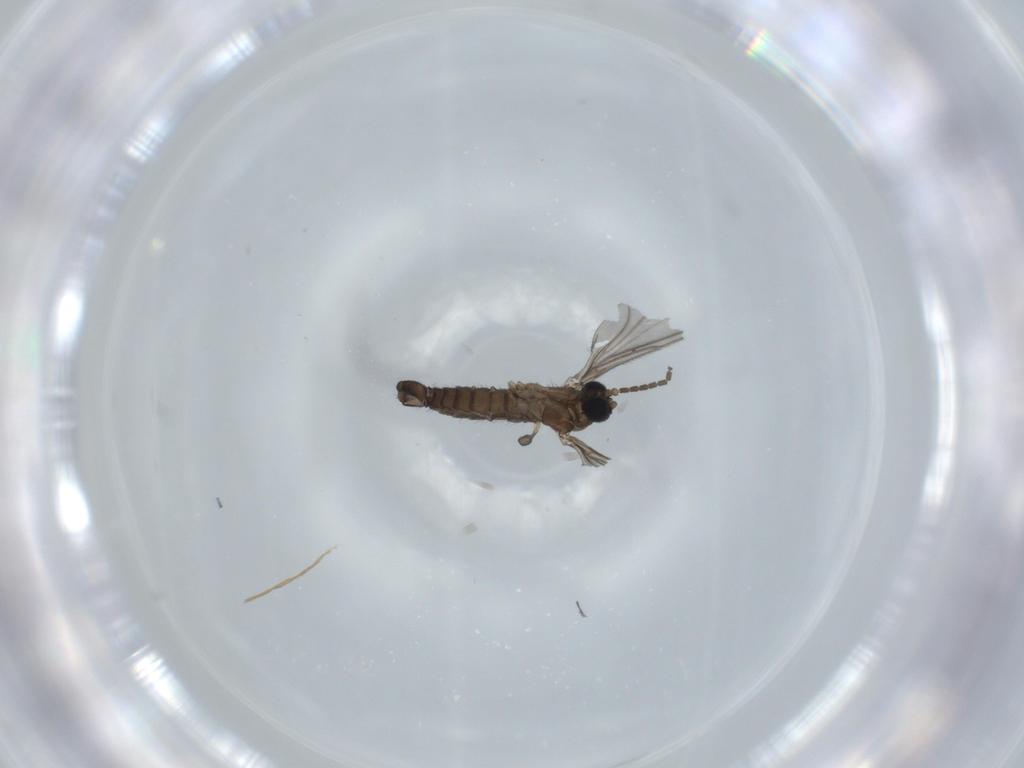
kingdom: Animalia
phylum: Arthropoda
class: Insecta
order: Diptera
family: Sciaridae
